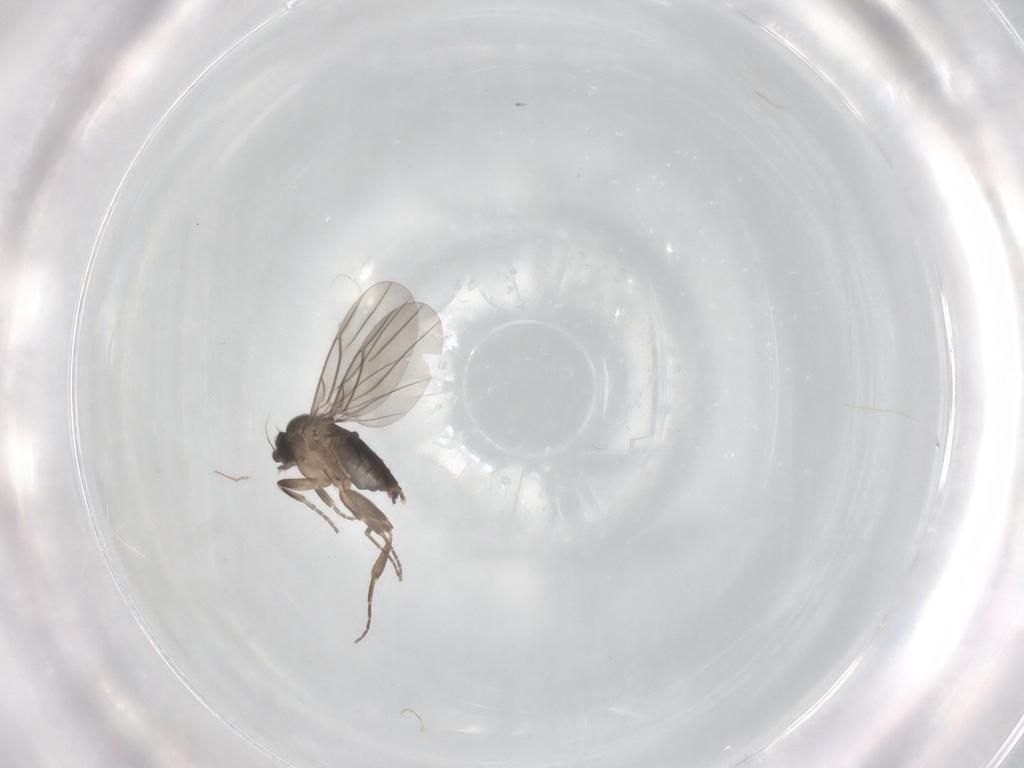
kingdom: Animalia
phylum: Arthropoda
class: Insecta
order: Diptera
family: Phoridae
